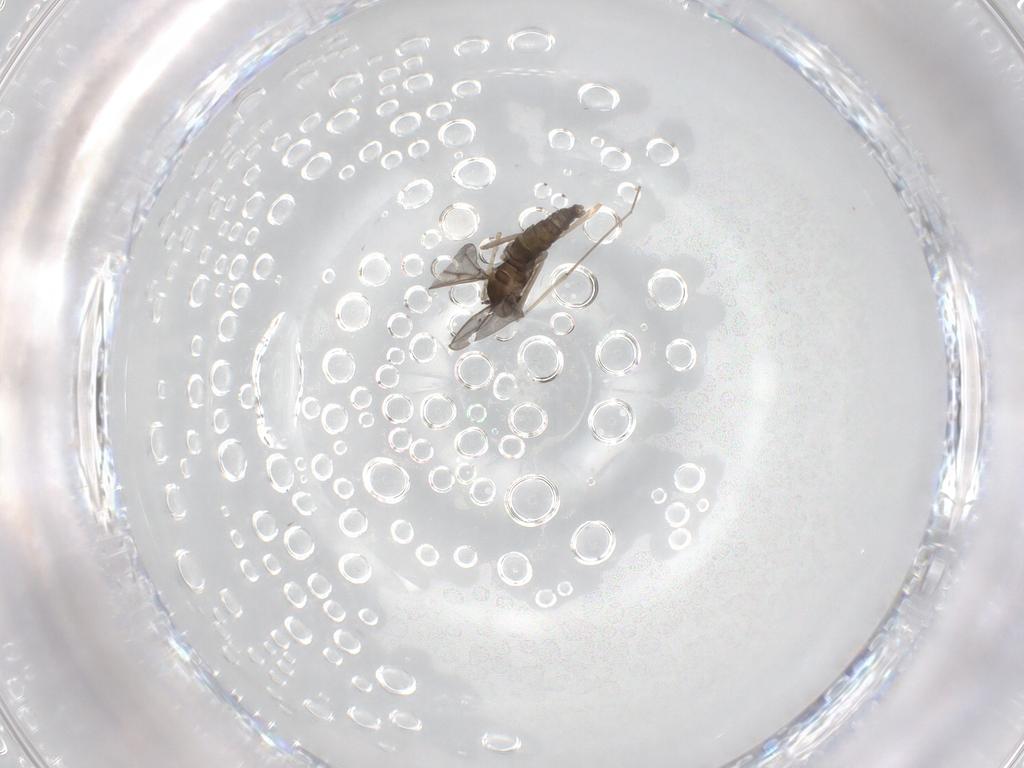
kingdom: Animalia
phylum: Arthropoda
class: Insecta
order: Diptera
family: Cecidomyiidae
